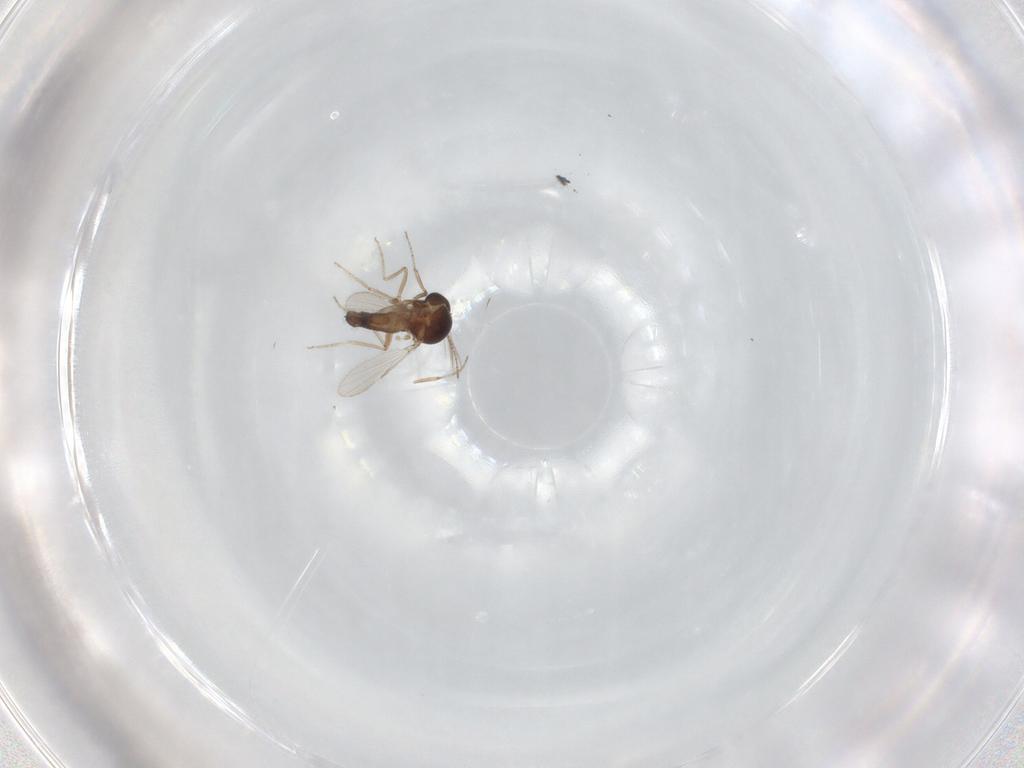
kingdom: Animalia
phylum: Arthropoda
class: Insecta
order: Diptera
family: Ceratopogonidae
